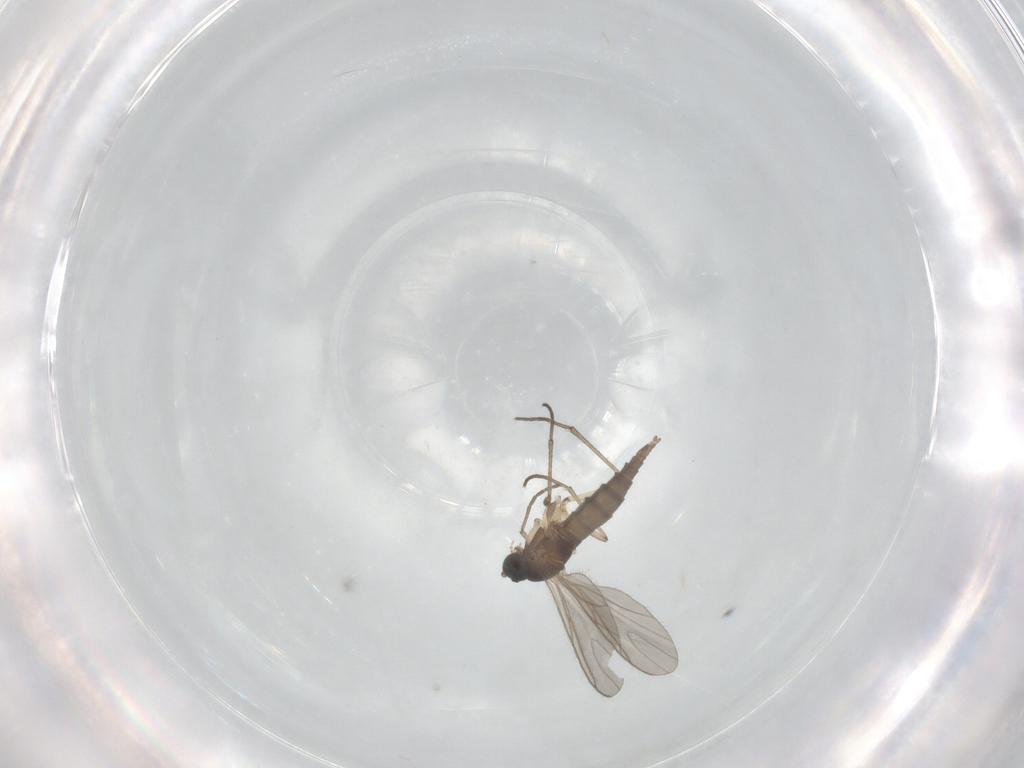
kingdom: Animalia
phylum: Arthropoda
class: Insecta
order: Diptera
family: Sciaridae
